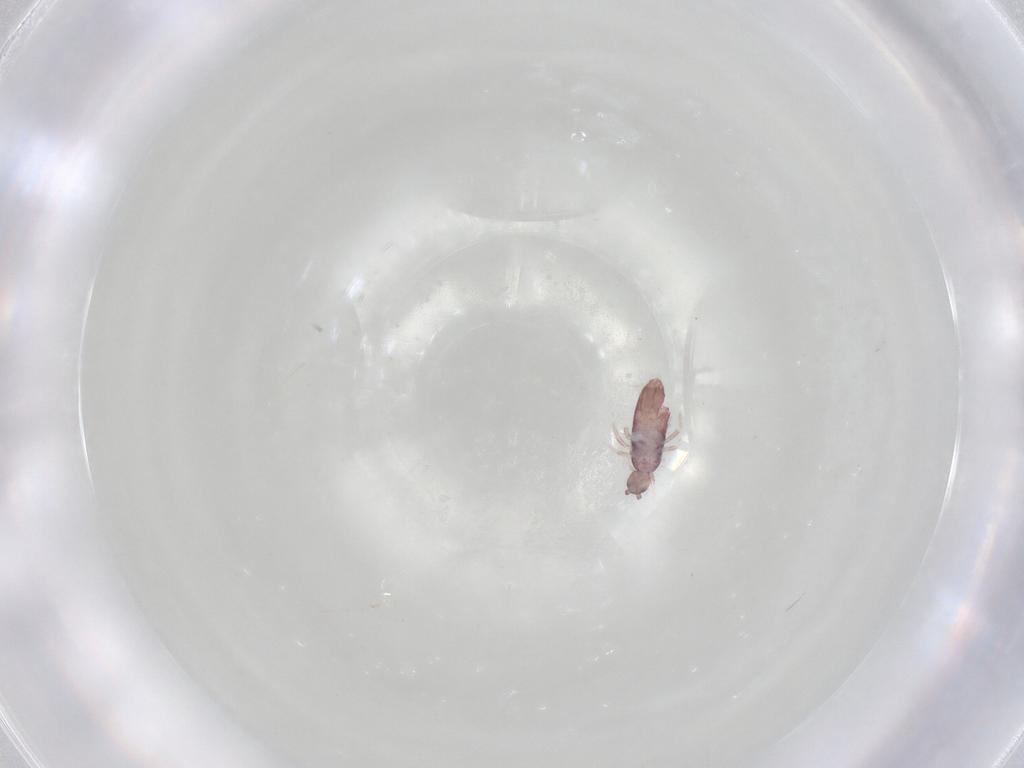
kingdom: Animalia
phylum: Arthropoda
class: Collembola
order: Entomobryomorpha
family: Entomobryidae
